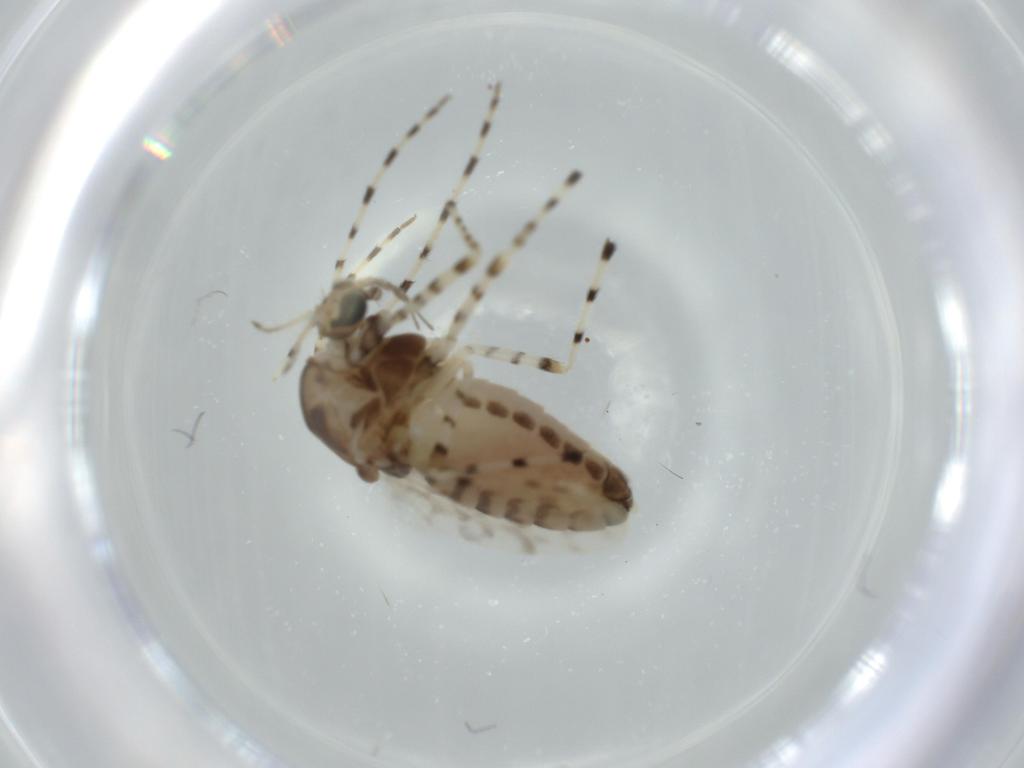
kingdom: Animalia
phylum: Arthropoda
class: Insecta
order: Diptera
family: Chironomidae
